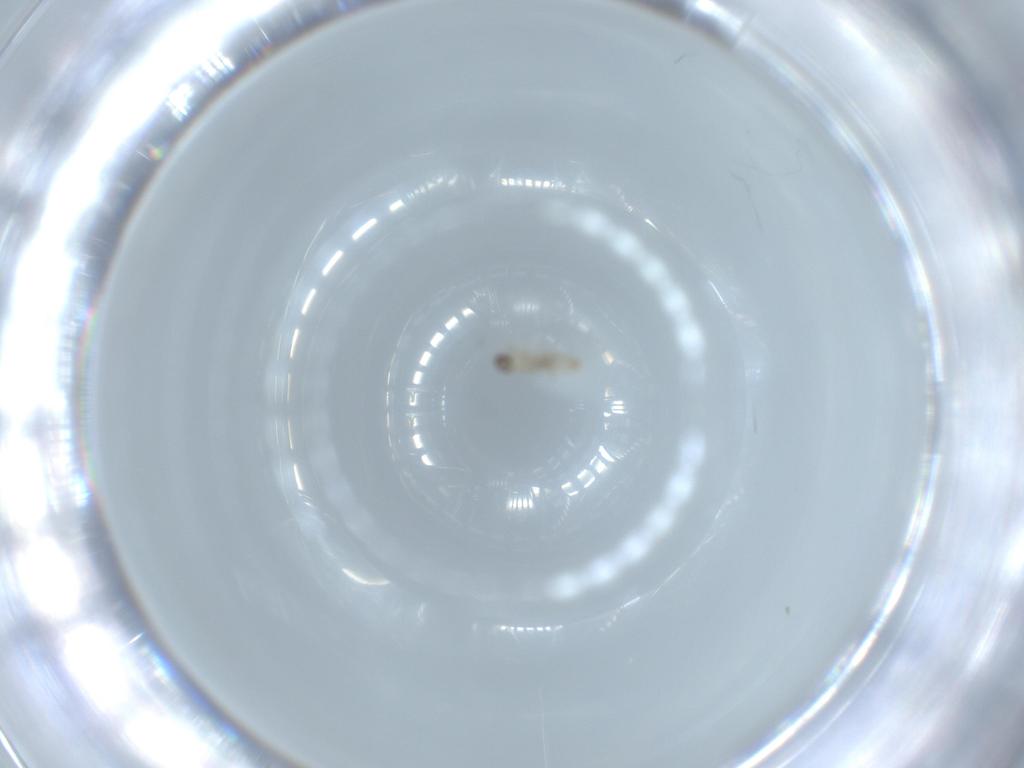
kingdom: Animalia
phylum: Arthropoda
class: Insecta
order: Diptera
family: Cecidomyiidae
